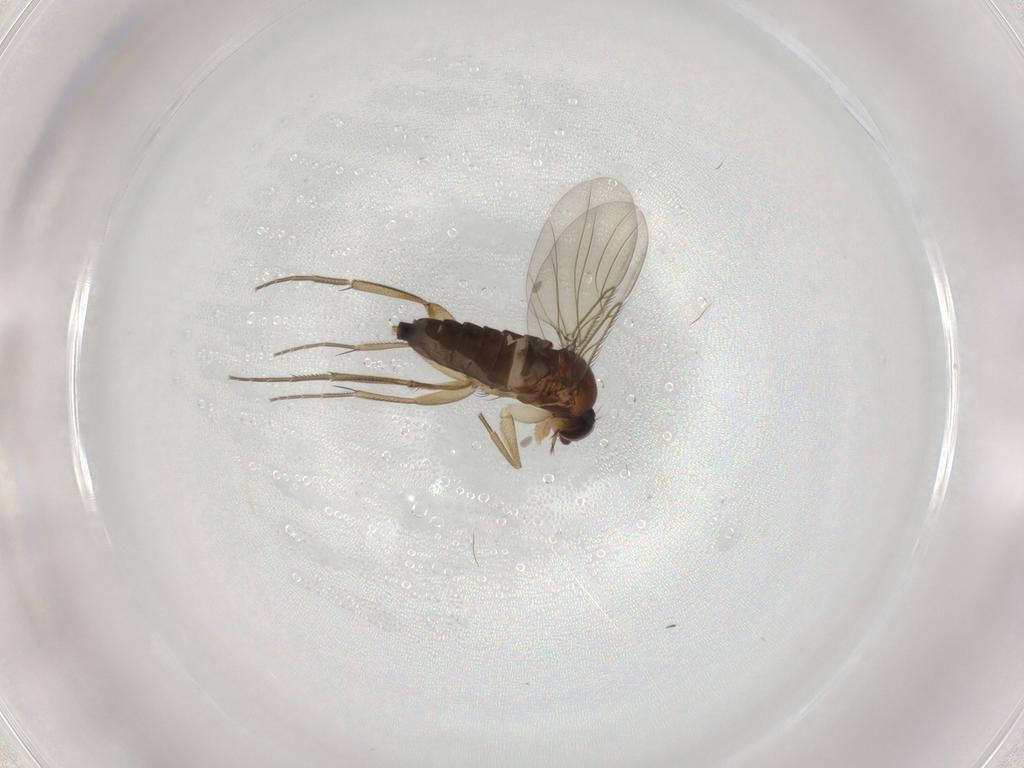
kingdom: Animalia
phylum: Arthropoda
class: Insecta
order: Diptera
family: Phoridae
